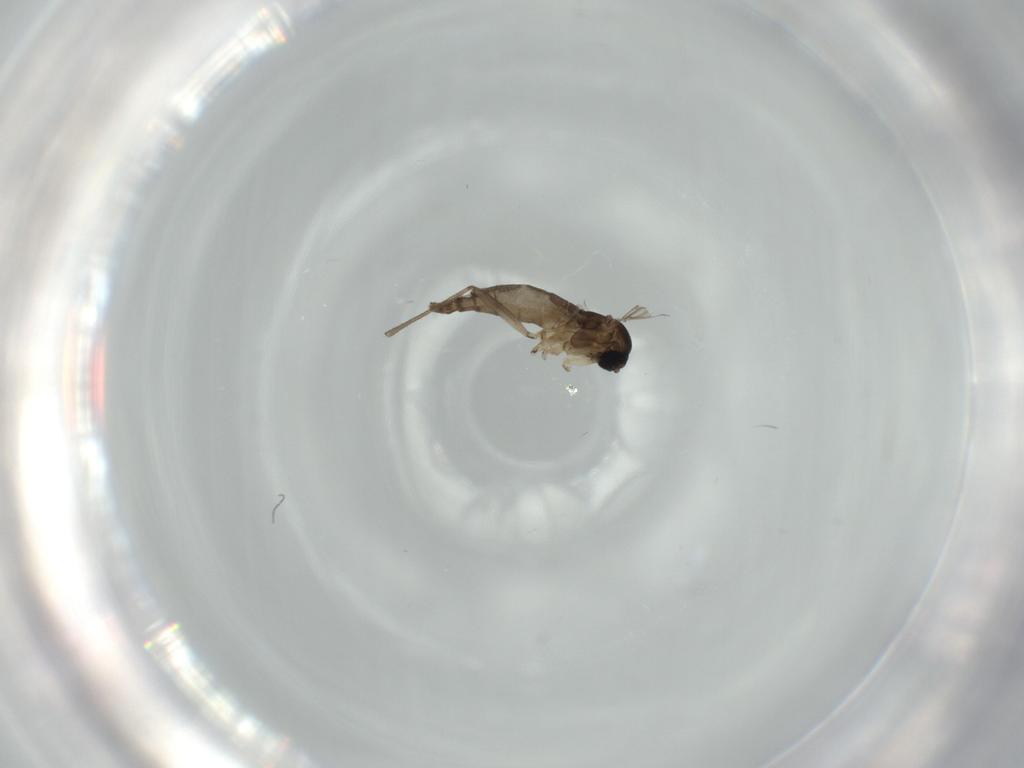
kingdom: Animalia
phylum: Arthropoda
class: Insecta
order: Diptera
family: Sciaridae
